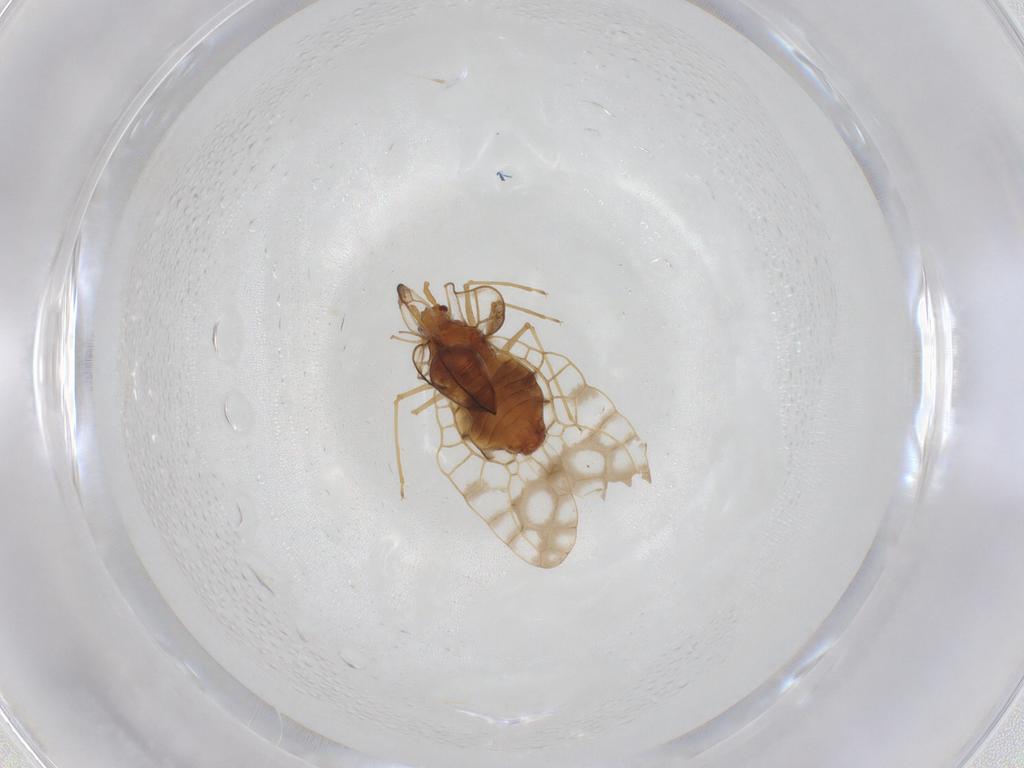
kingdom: Animalia
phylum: Arthropoda
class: Insecta
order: Hemiptera
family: Tingidae
